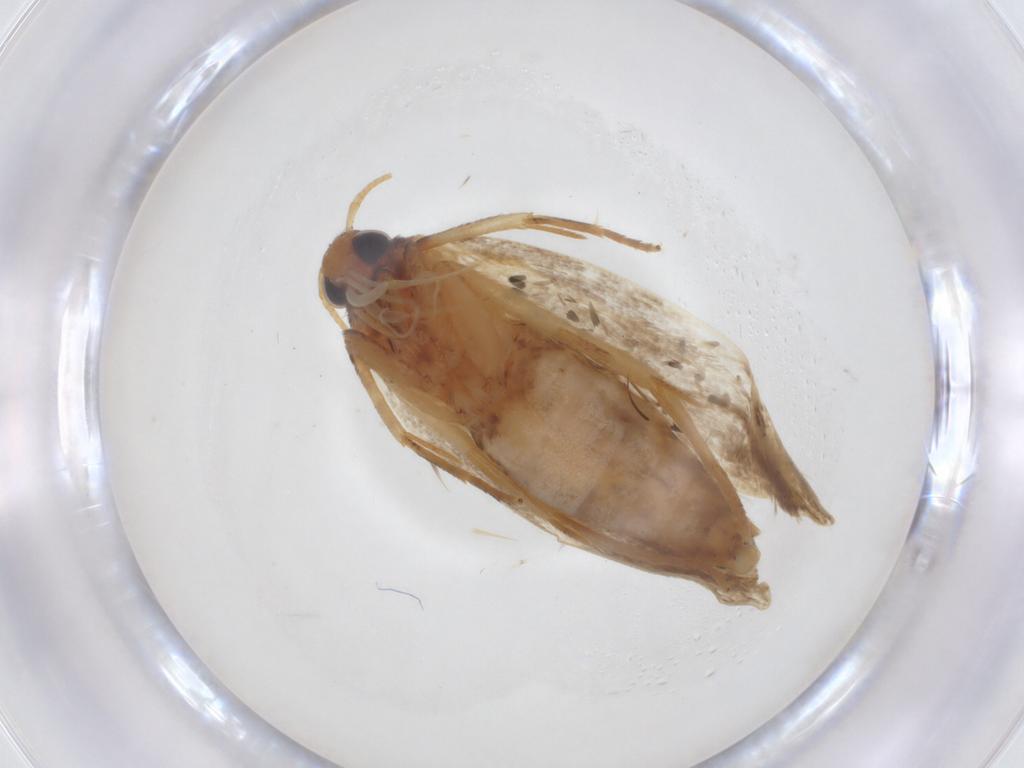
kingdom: Animalia
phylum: Arthropoda
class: Insecta
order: Lepidoptera
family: Oecophoridae
